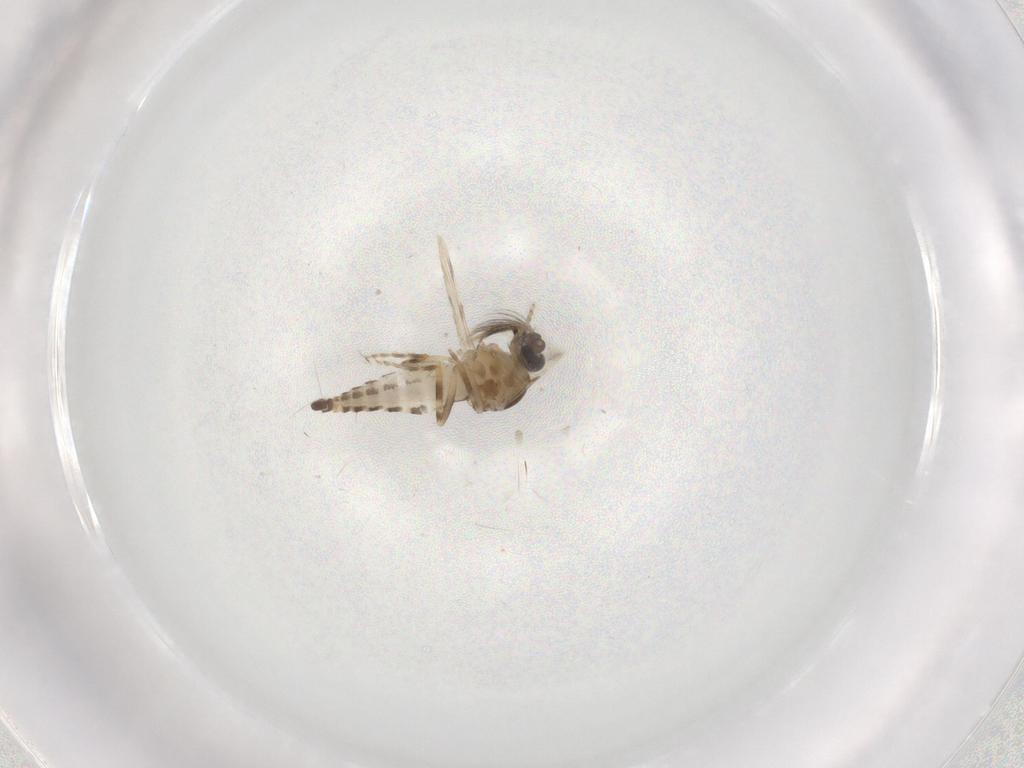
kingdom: Animalia
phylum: Arthropoda
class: Insecta
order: Diptera
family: Ceratopogonidae
